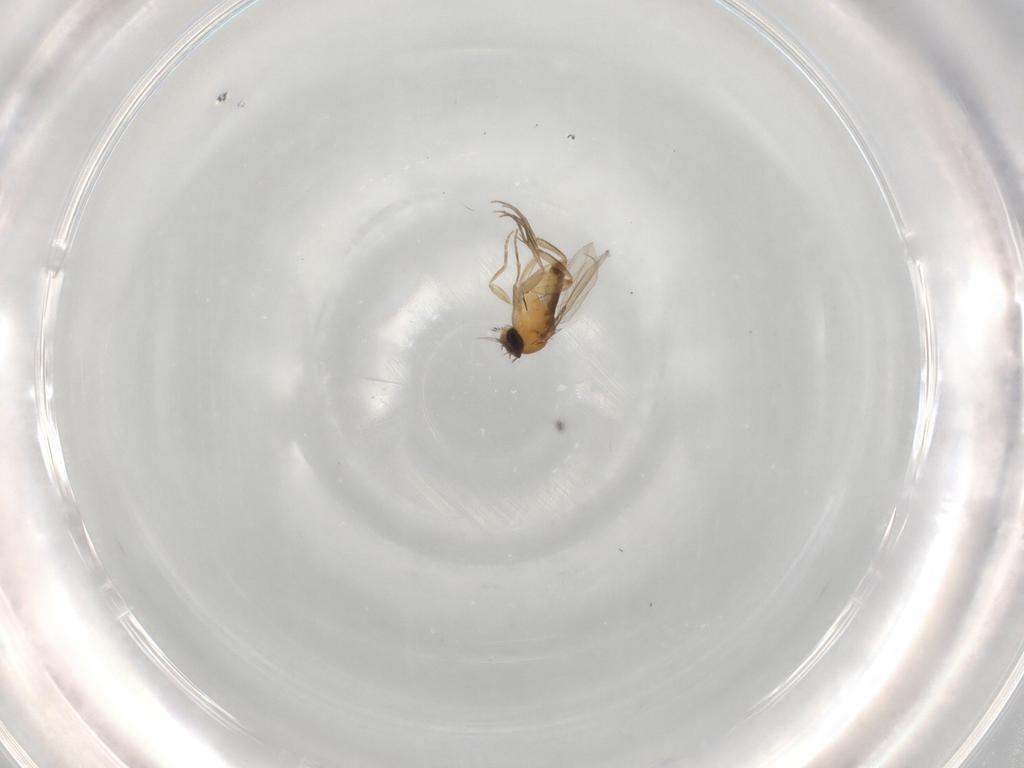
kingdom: Animalia
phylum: Arthropoda
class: Insecta
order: Diptera
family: Phoridae
